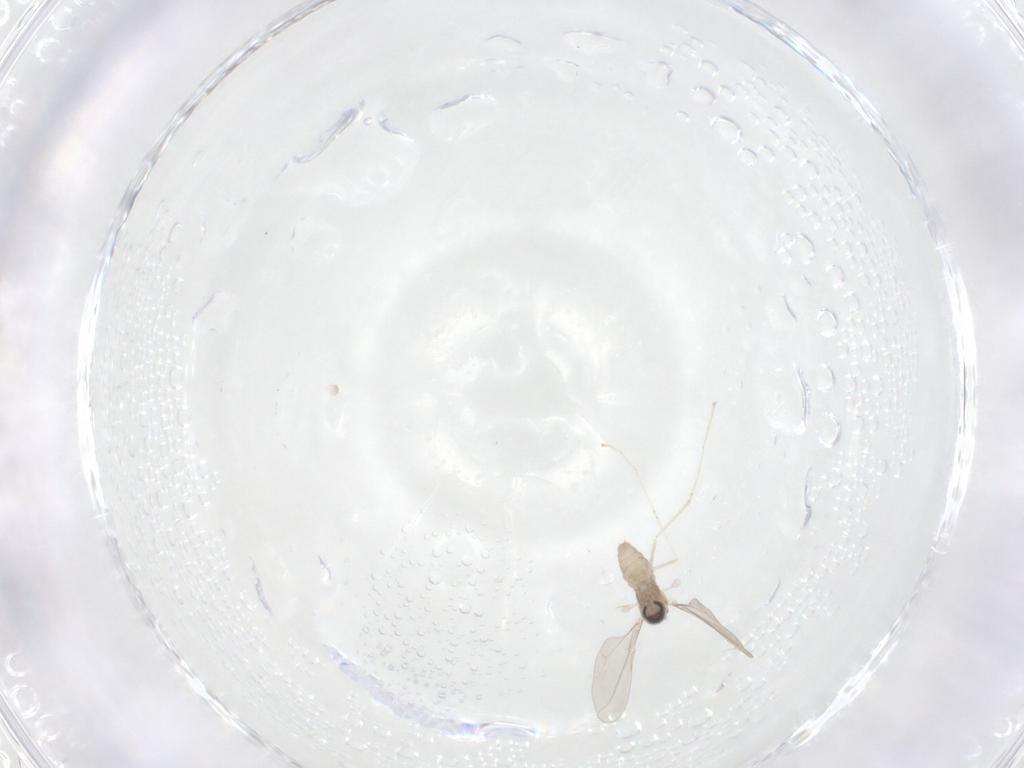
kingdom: Animalia
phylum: Arthropoda
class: Insecta
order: Diptera
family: Cecidomyiidae
